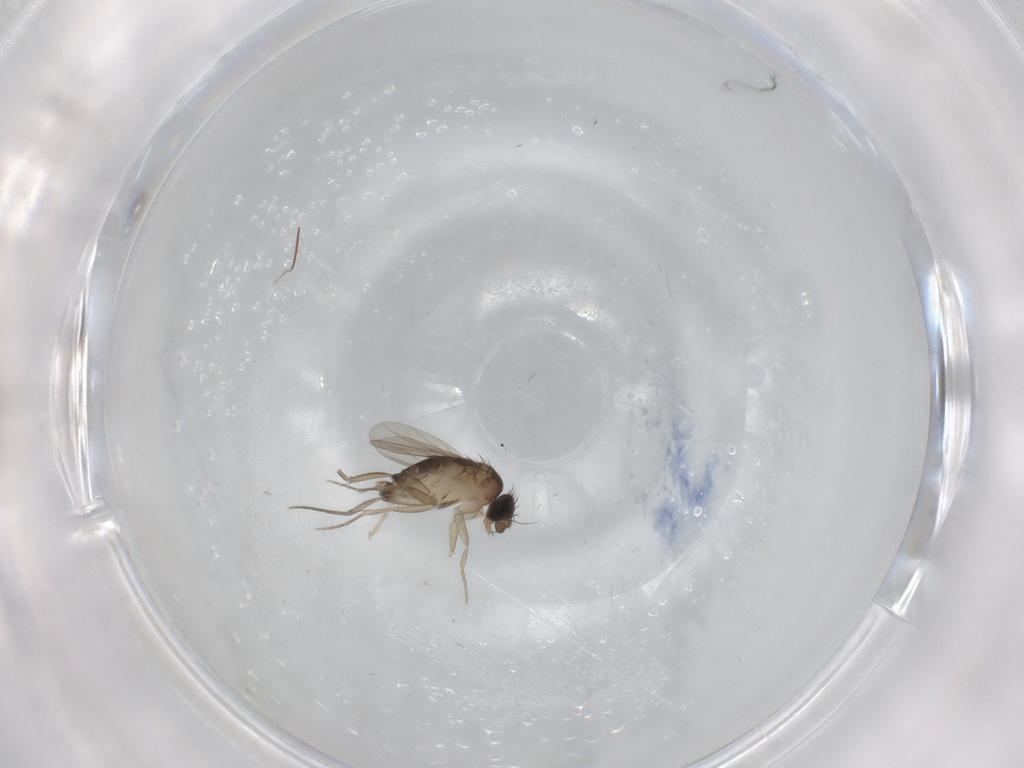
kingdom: Animalia
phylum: Arthropoda
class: Insecta
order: Diptera
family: Phoridae
